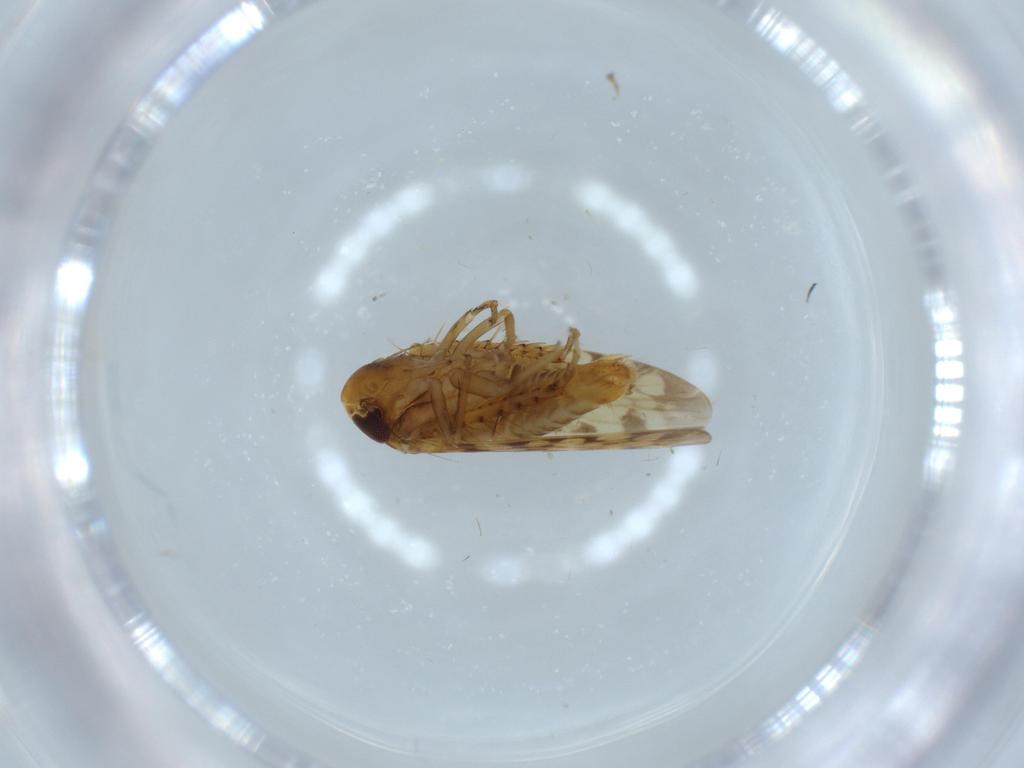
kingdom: Animalia
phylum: Arthropoda
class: Insecta
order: Hemiptera
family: Cicadellidae
